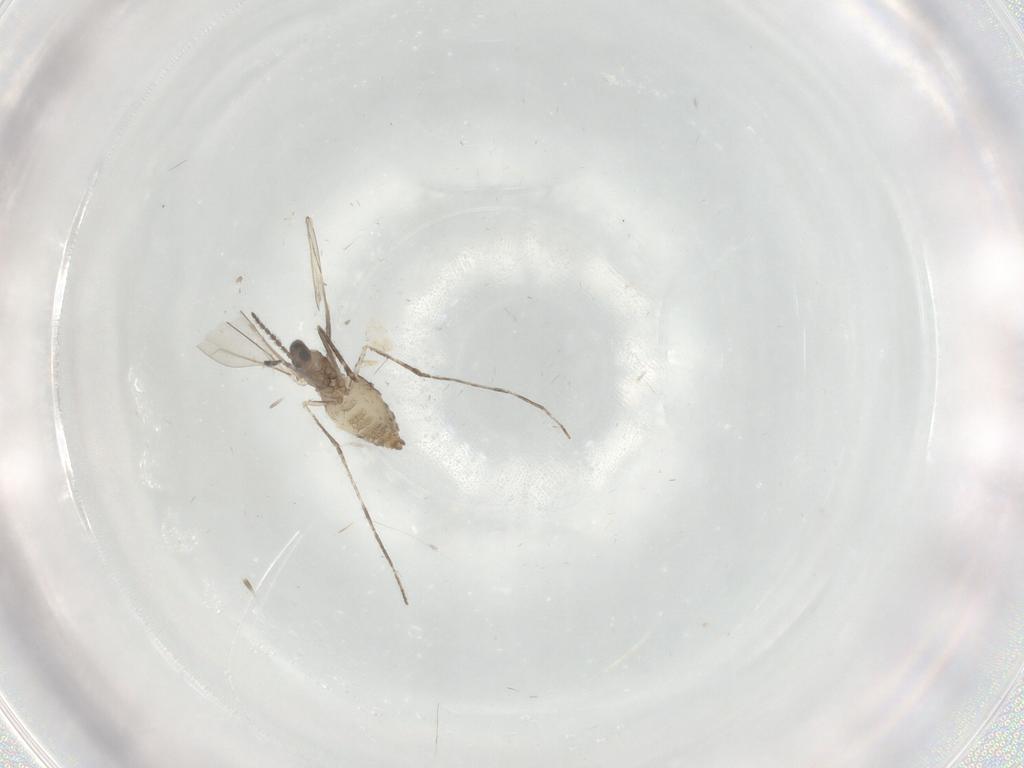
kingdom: Animalia
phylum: Arthropoda
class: Insecta
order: Diptera
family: Cecidomyiidae
